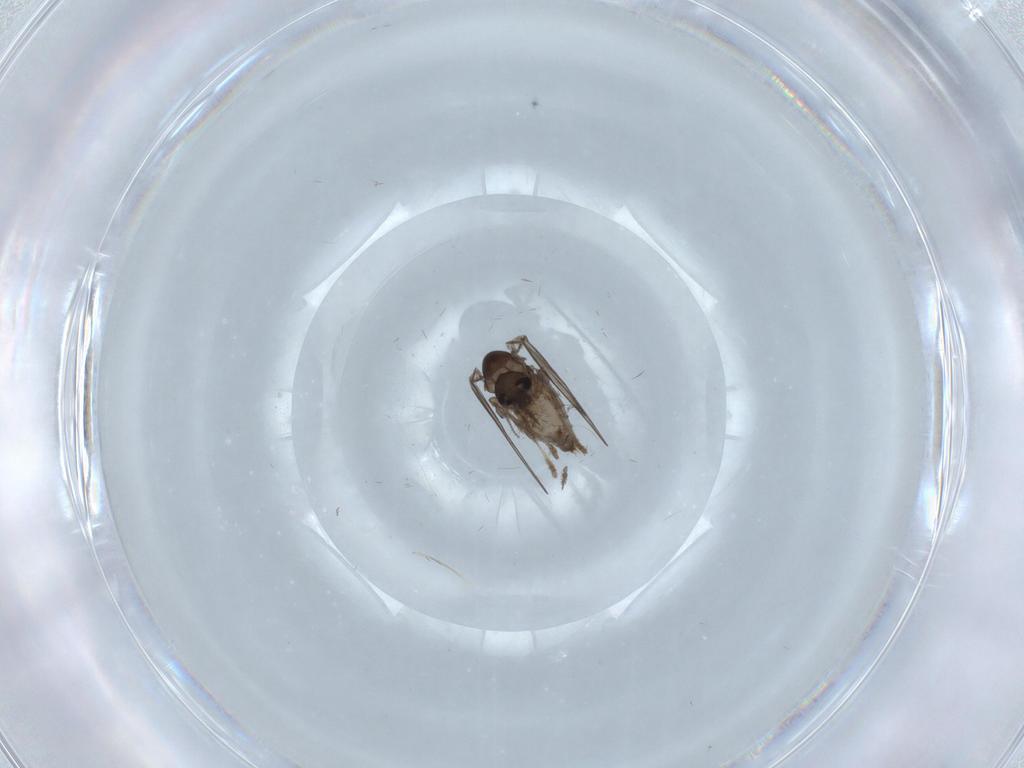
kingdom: Animalia
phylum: Arthropoda
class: Insecta
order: Diptera
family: Psychodidae
